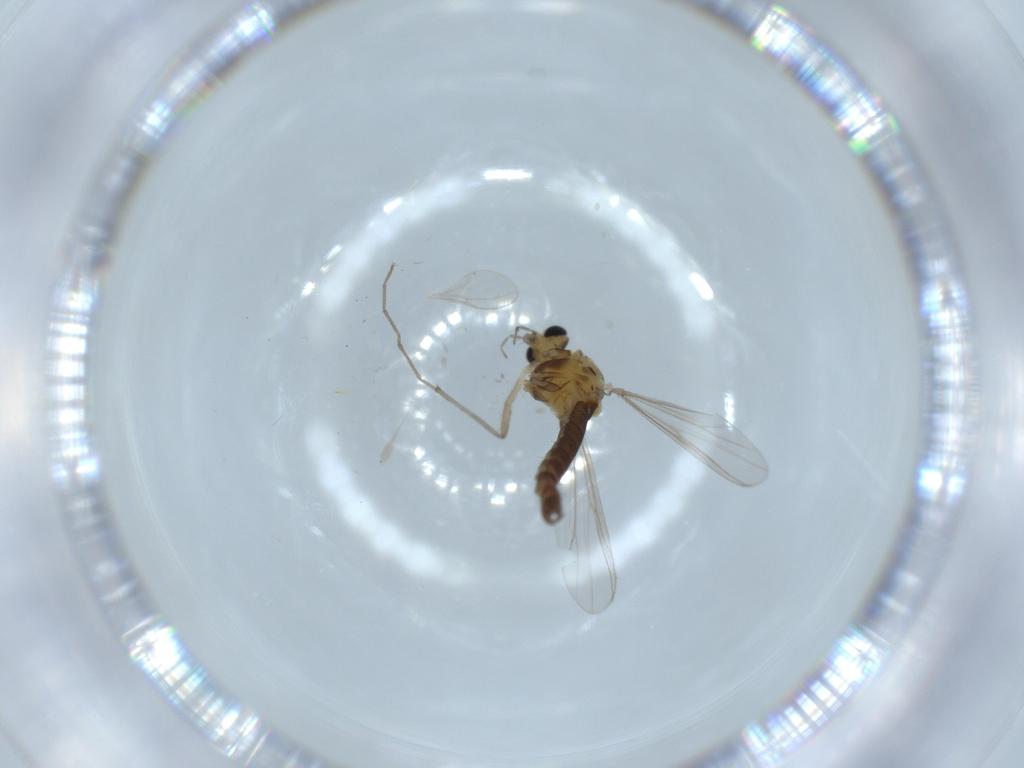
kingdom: Animalia
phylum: Arthropoda
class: Insecta
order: Diptera
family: Chironomidae
